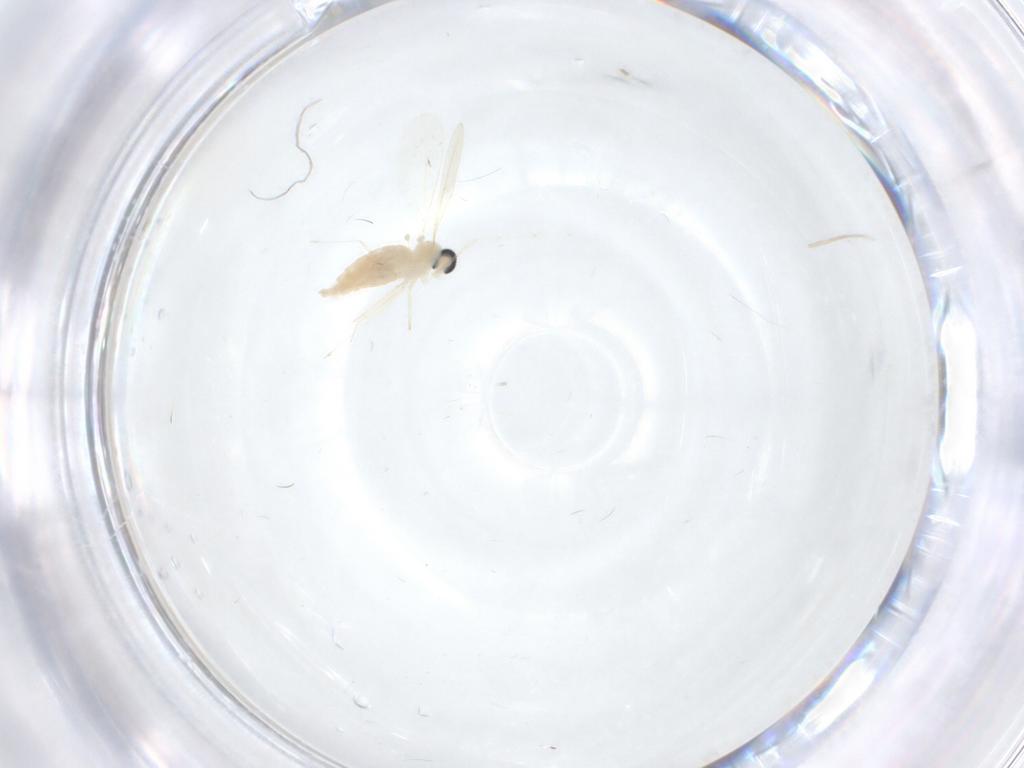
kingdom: Animalia
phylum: Arthropoda
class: Insecta
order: Diptera
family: Cecidomyiidae
